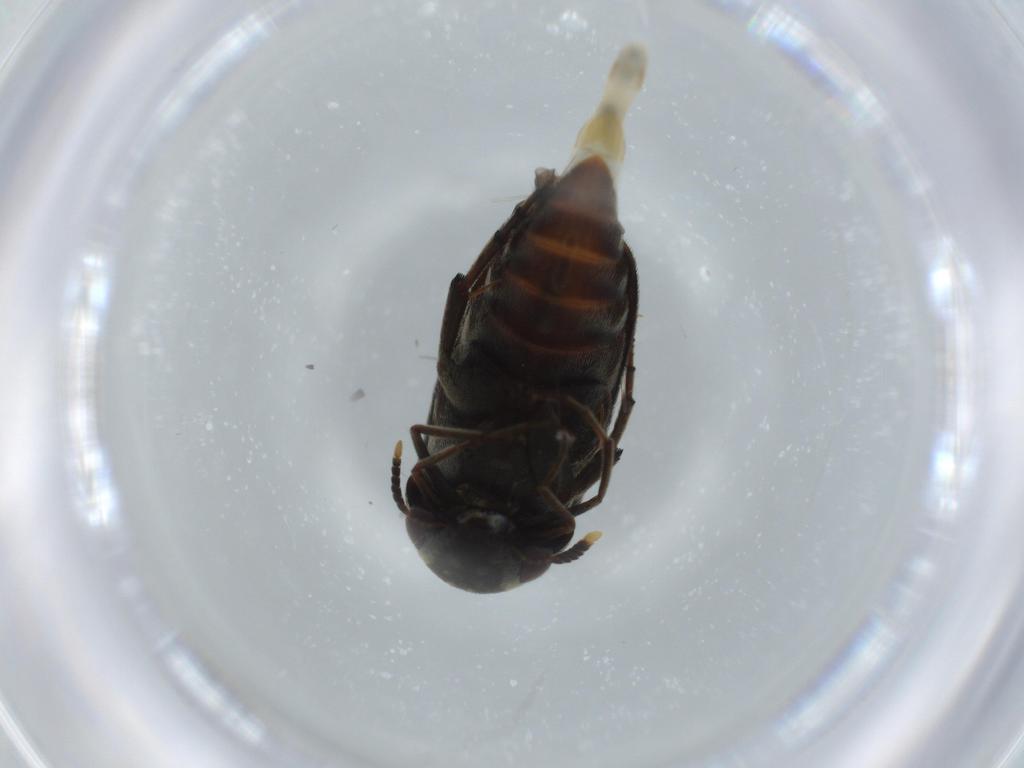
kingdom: Animalia
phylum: Arthropoda
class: Insecta
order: Coleoptera
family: Mordellidae
